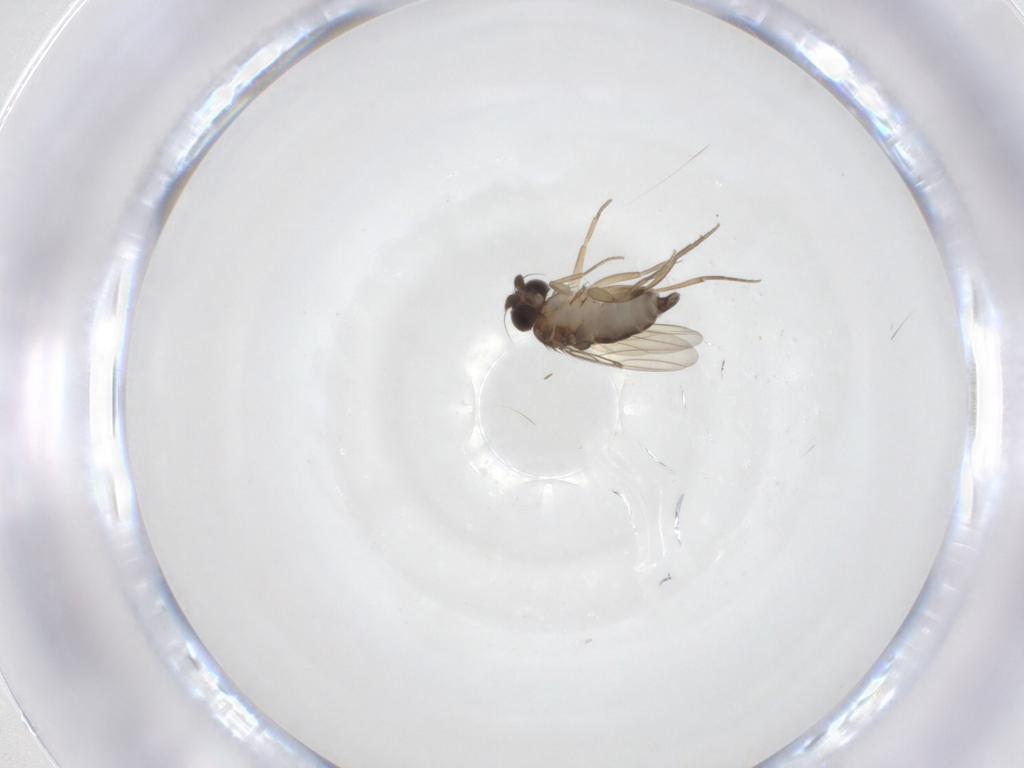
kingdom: Animalia
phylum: Arthropoda
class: Insecta
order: Diptera
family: Phoridae
